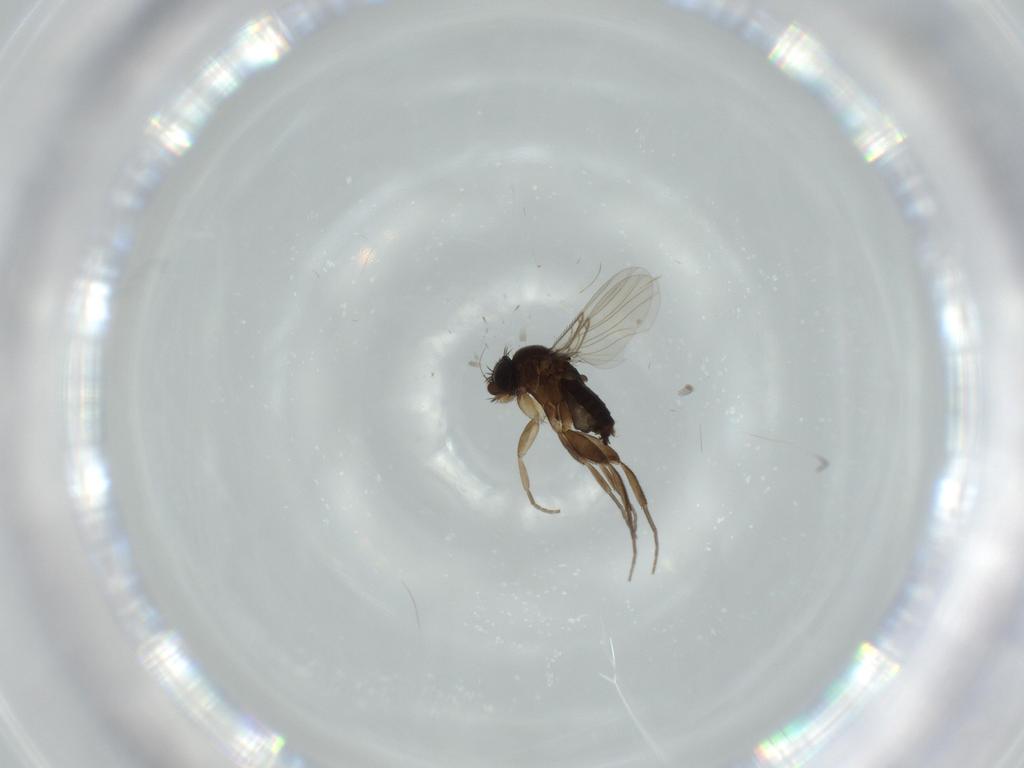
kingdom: Animalia
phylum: Arthropoda
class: Insecta
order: Diptera
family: Phoridae
